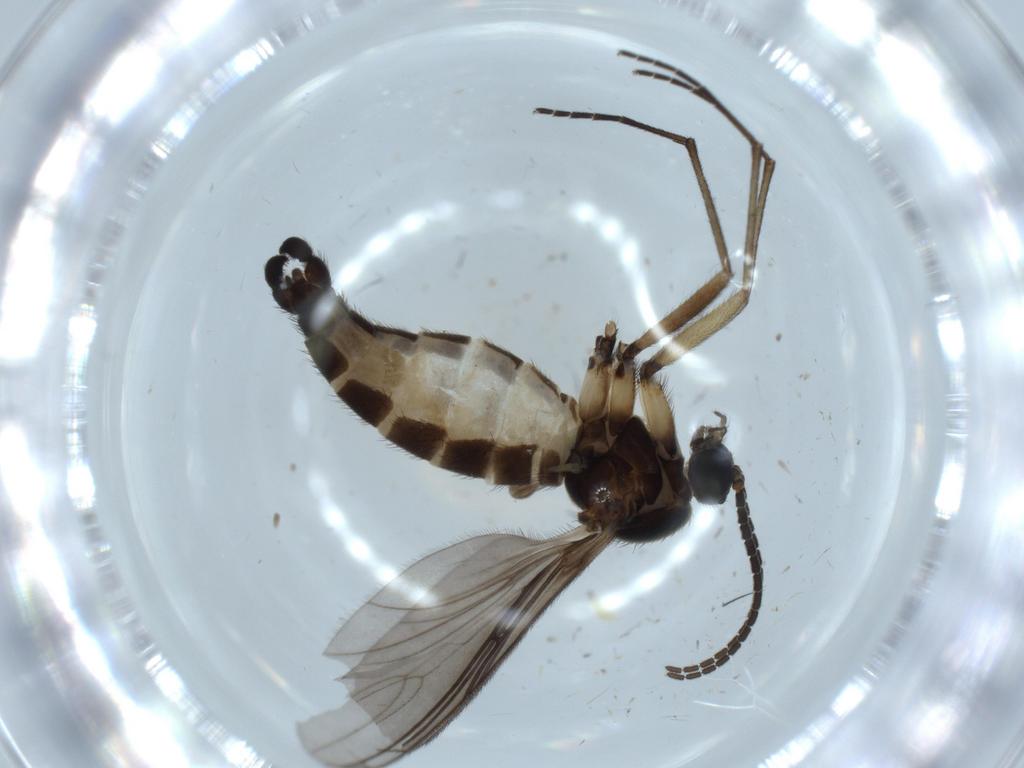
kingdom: Animalia
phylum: Arthropoda
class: Insecta
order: Diptera
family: Sciaridae
